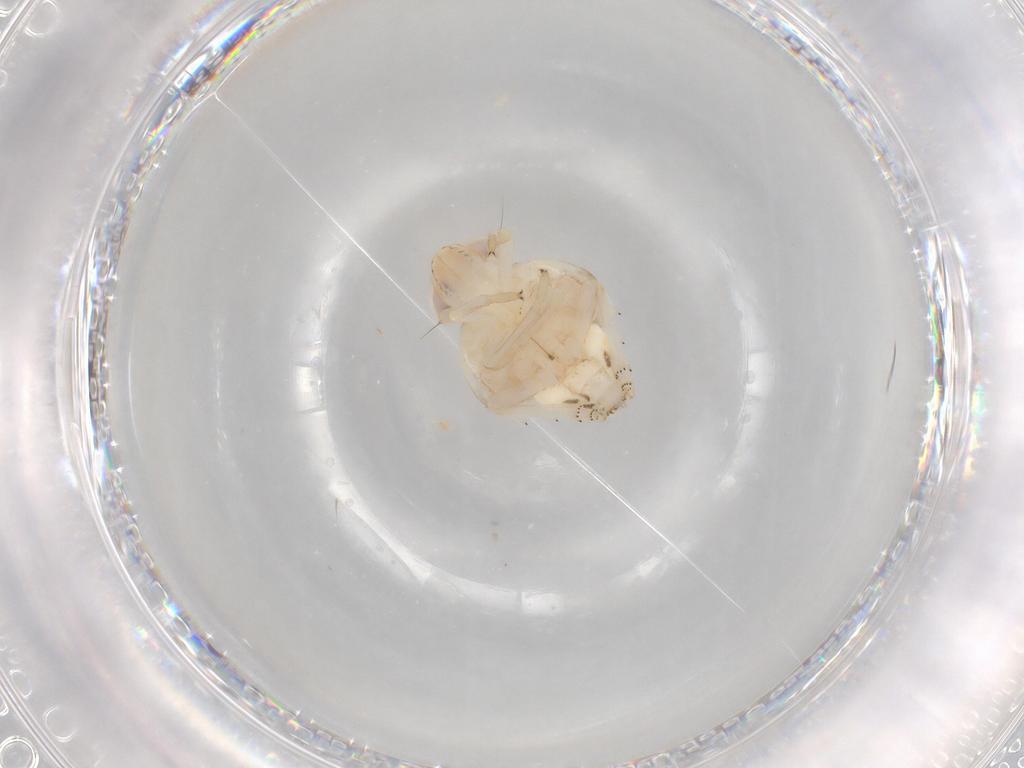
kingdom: Animalia
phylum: Arthropoda
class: Insecta
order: Hemiptera
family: Nogodinidae
